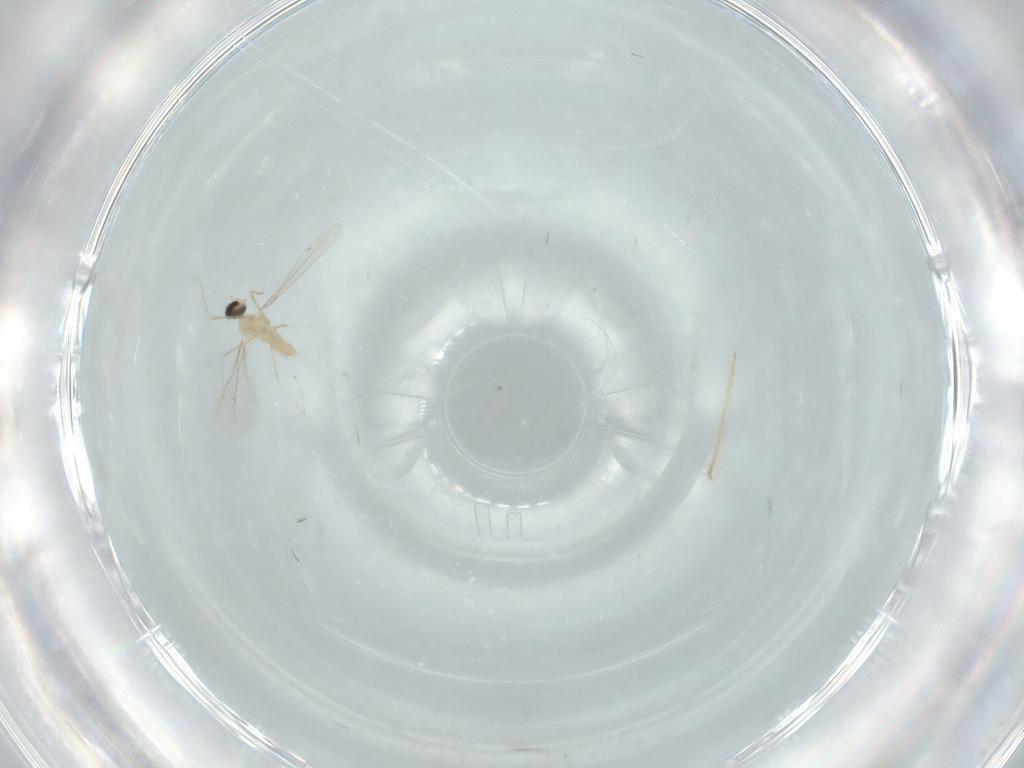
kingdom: Animalia
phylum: Arthropoda
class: Insecta
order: Diptera
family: Cecidomyiidae
